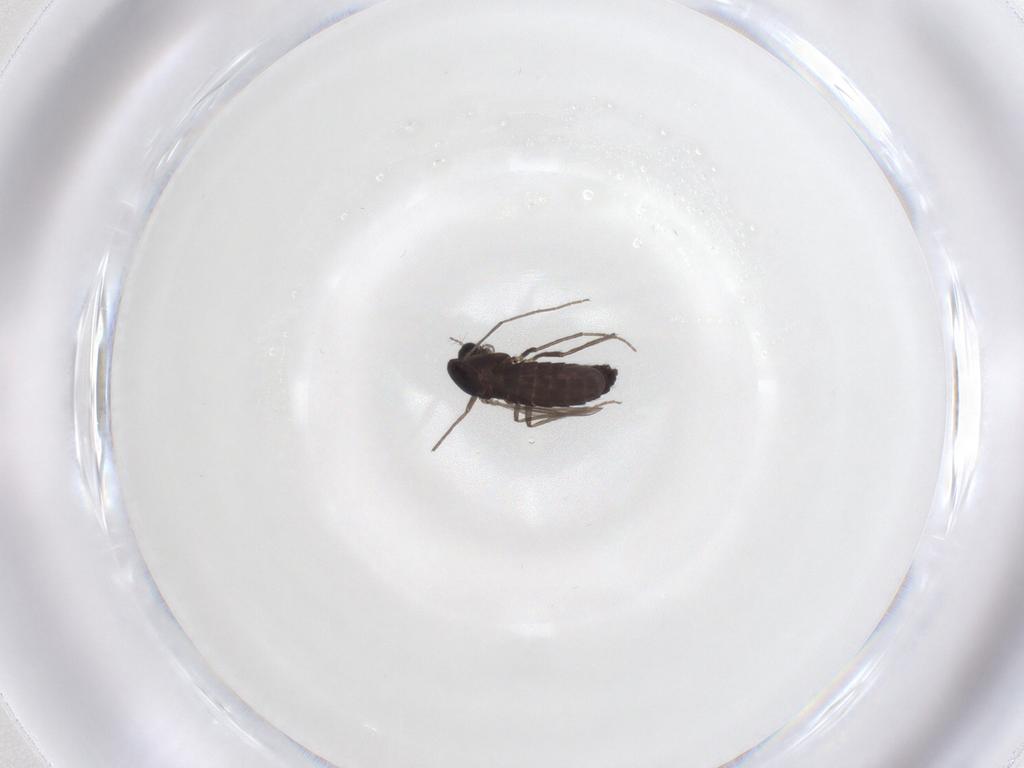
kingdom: Animalia
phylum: Arthropoda
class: Insecta
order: Diptera
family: Chironomidae
